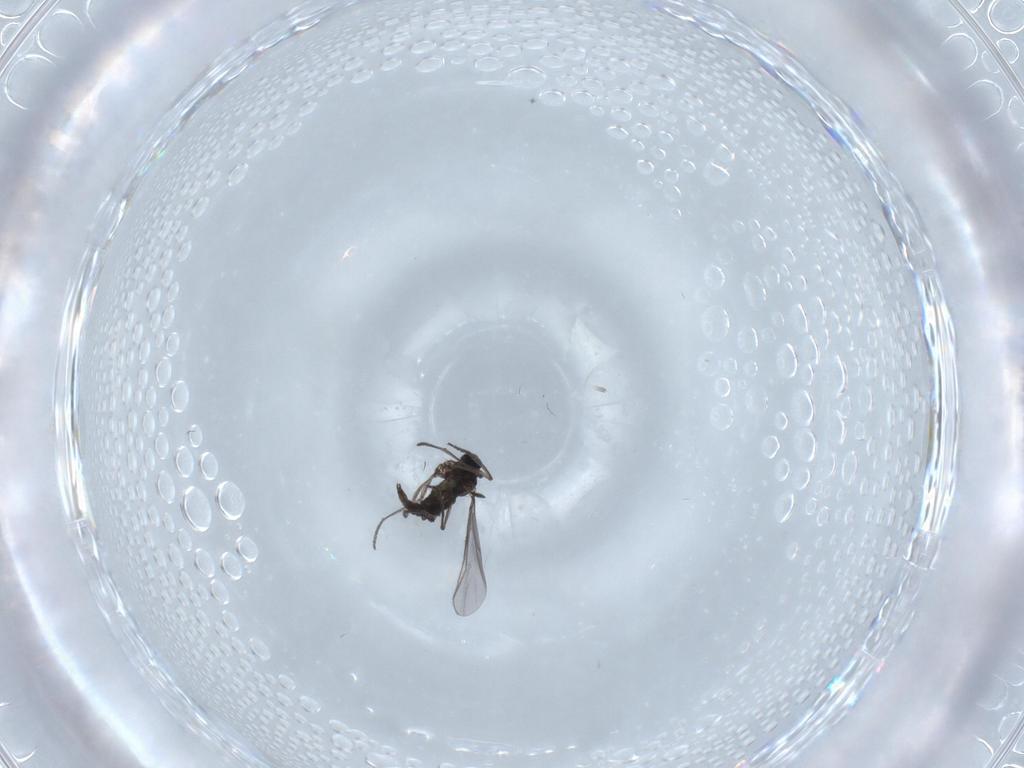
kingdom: Animalia
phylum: Arthropoda
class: Insecta
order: Diptera
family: Sciaridae
